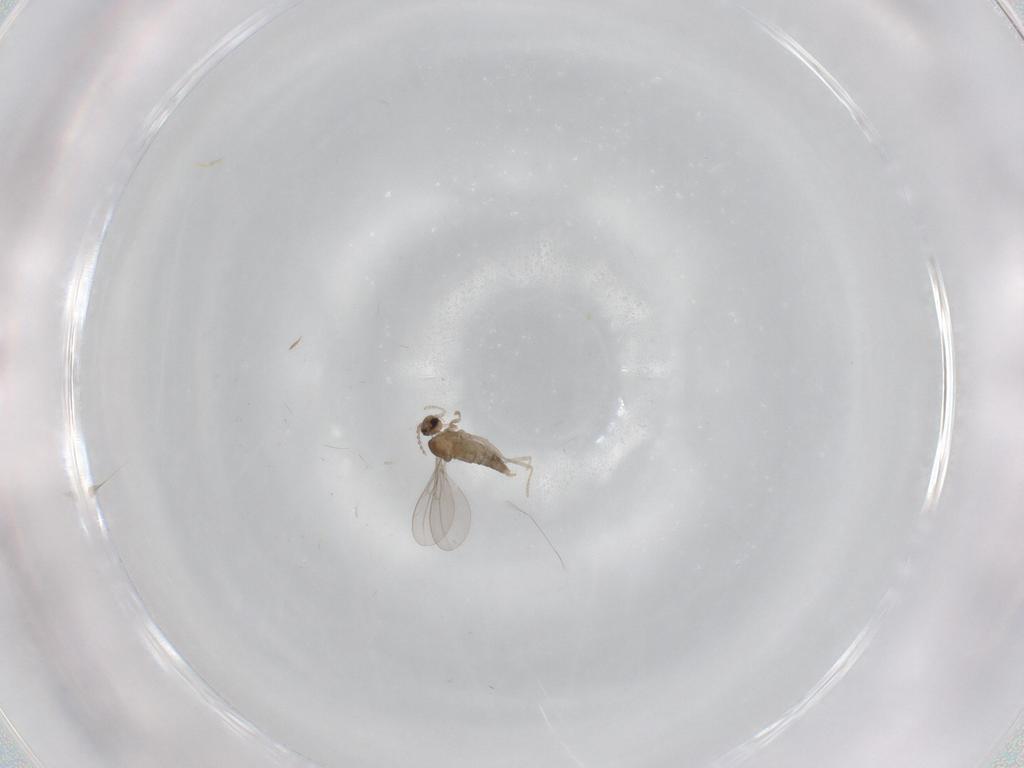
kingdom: Animalia
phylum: Arthropoda
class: Insecta
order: Diptera
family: Cecidomyiidae
